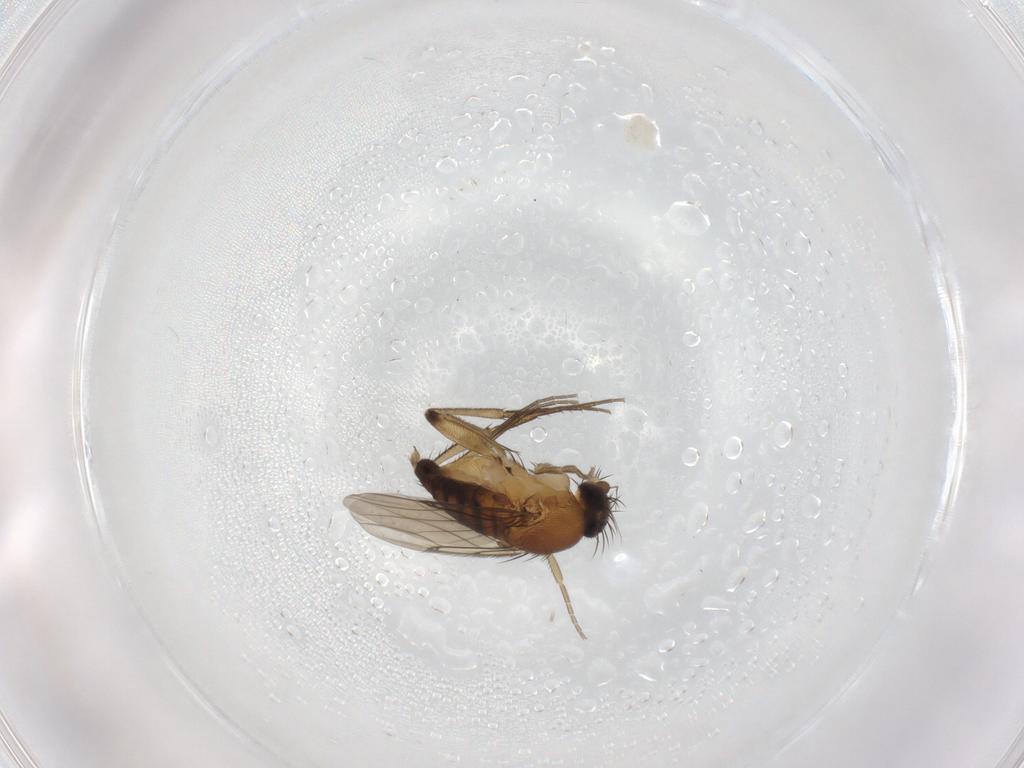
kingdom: Animalia
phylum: Arthropoda
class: Insecta
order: Diptera
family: Phoridae
